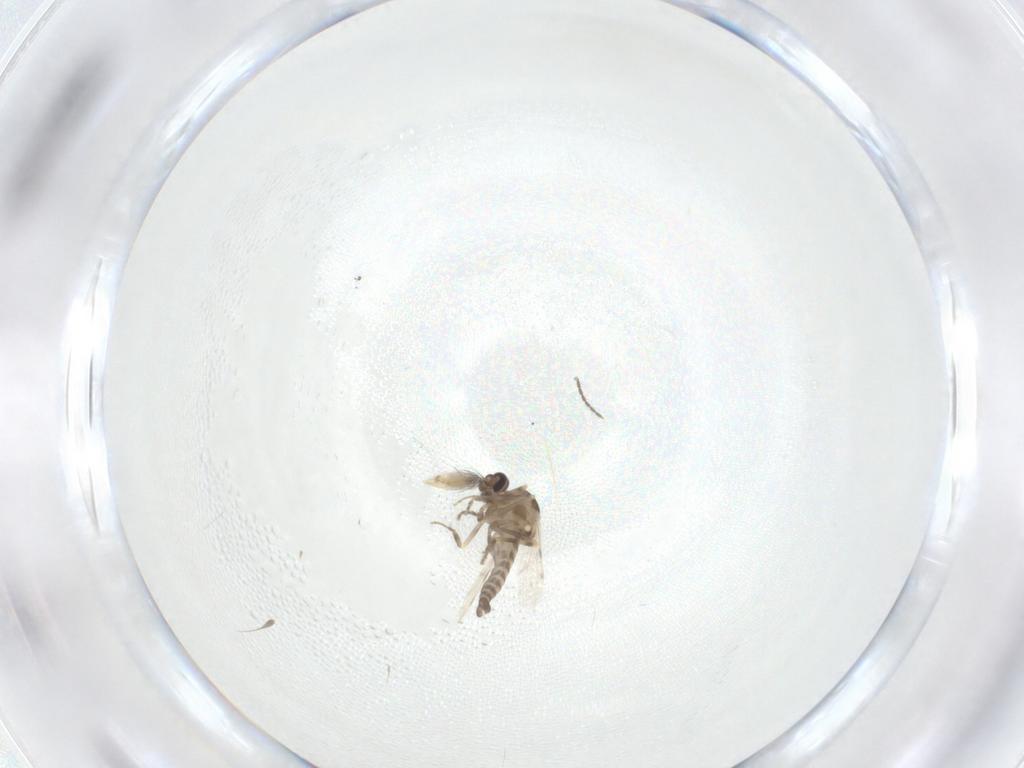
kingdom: Animalia
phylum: Arthropoda
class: Insecta
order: Diptera
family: Ceratopogonidae
